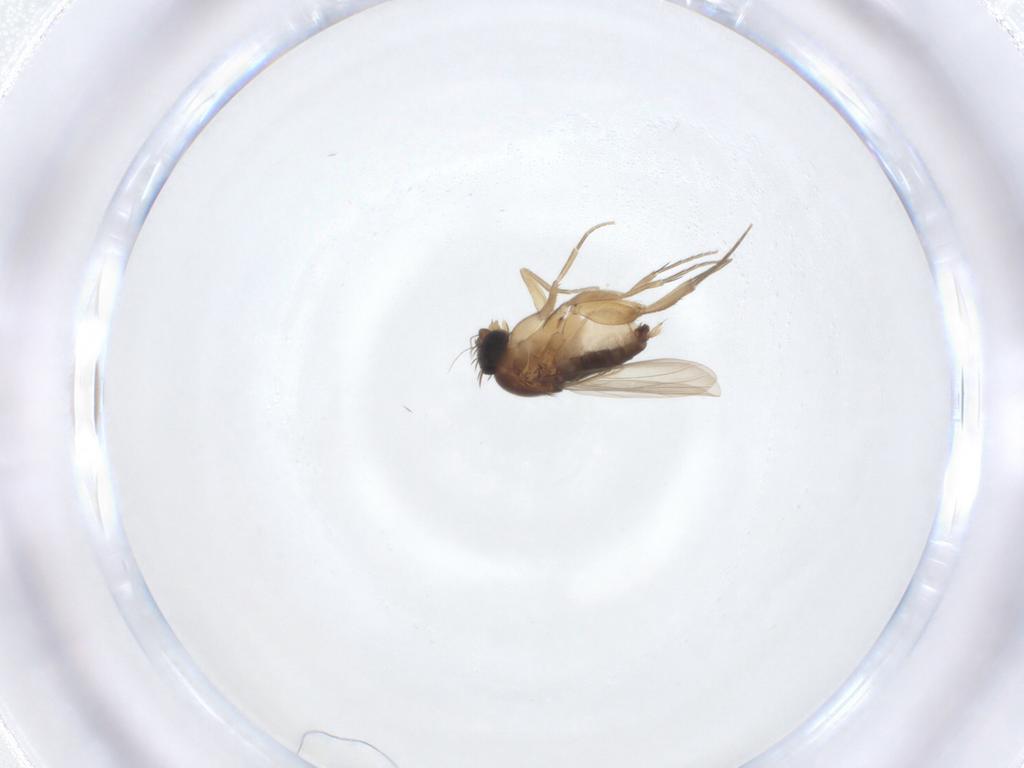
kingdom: Animalia
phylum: Arthropoda
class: Insecta
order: Diptera
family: Phoridae
